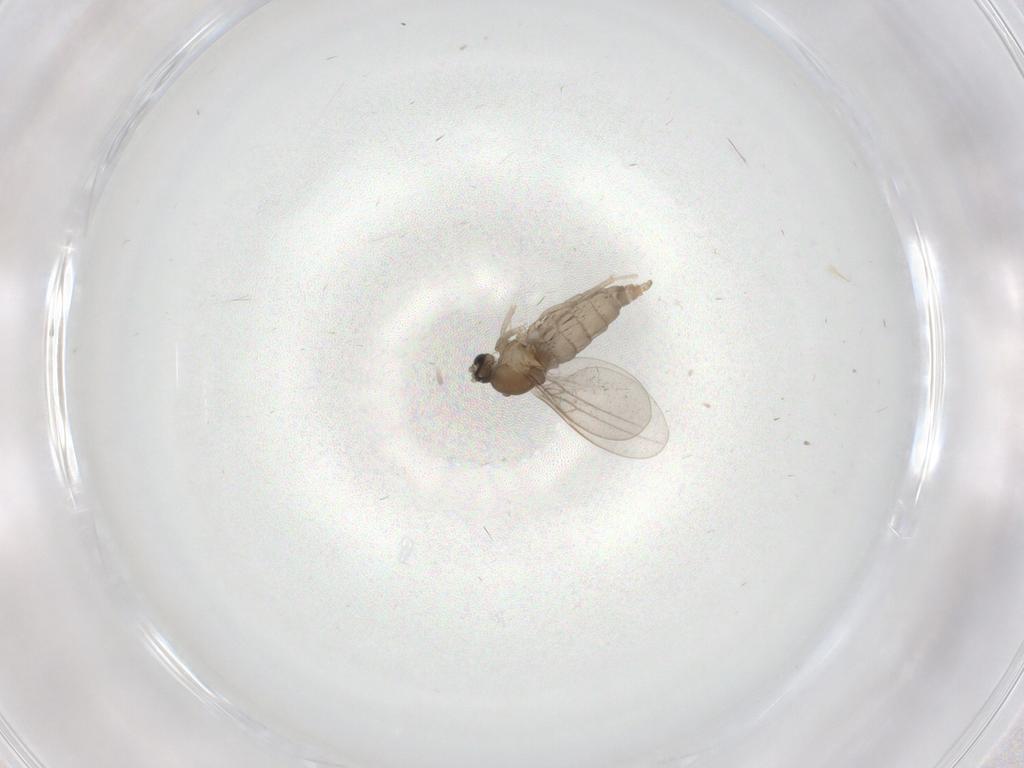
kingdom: Animalia
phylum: Arthropoda
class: Insecta
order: Diptera
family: Cecidomyiidae
